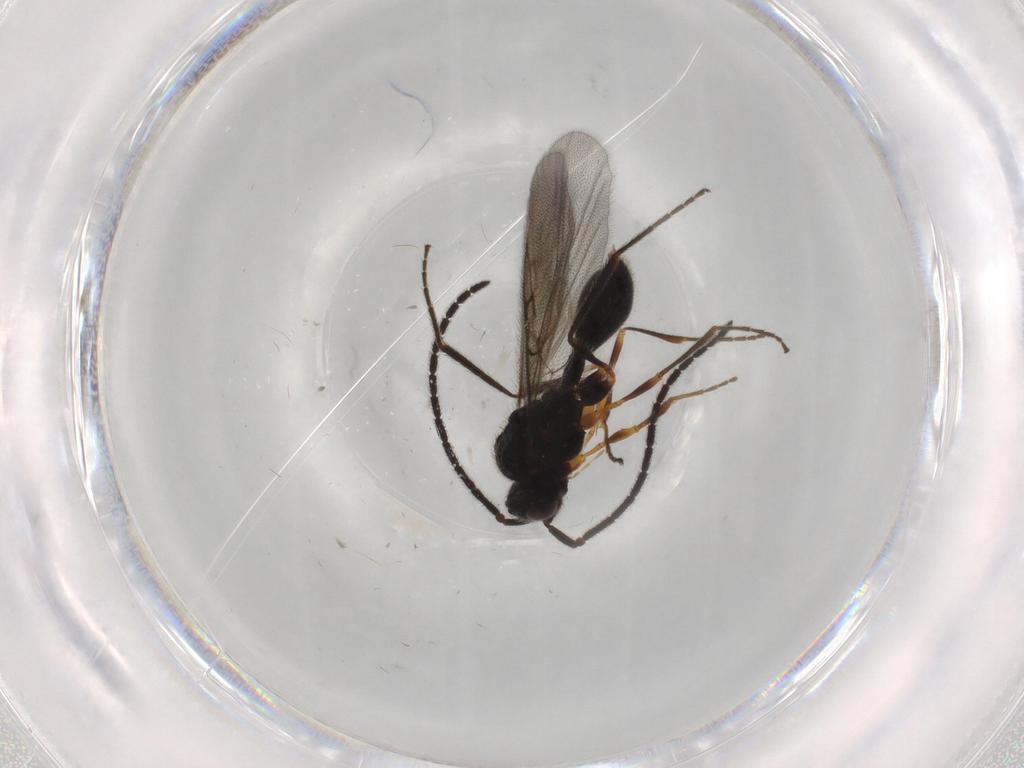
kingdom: Animalia
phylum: Arthropoda
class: Insecta
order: Hymenoptera
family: Diapriidae
